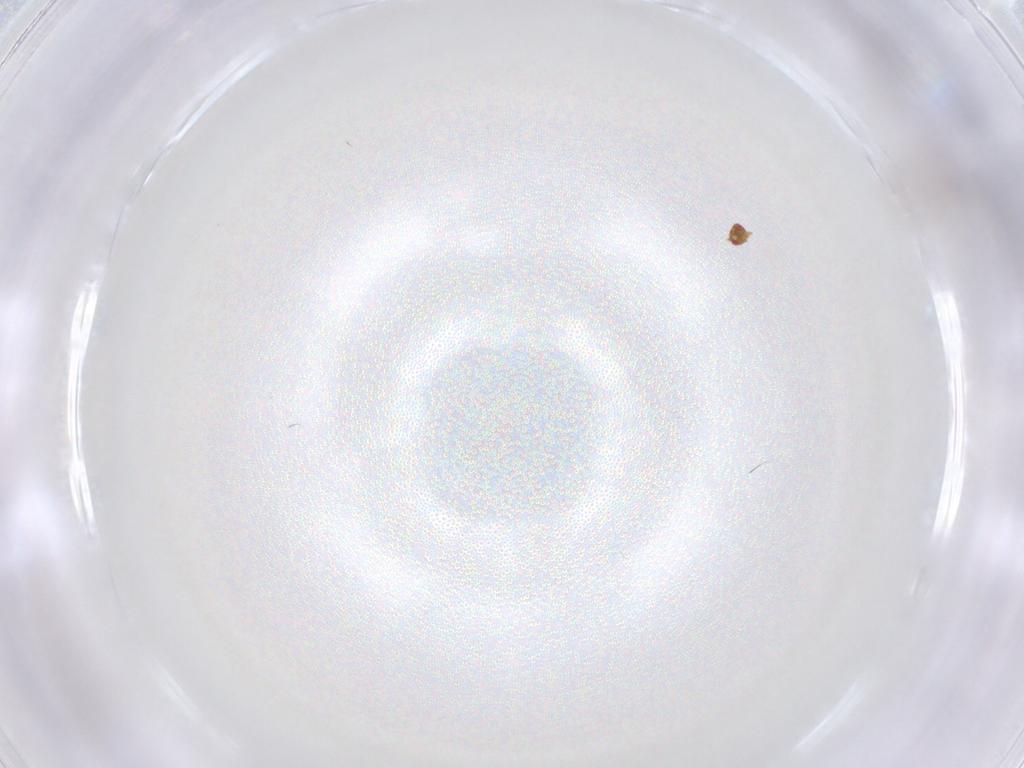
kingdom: Animalia
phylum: Arthropoda
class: Insecta
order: Hymenoptera
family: Trichogrammatidae
